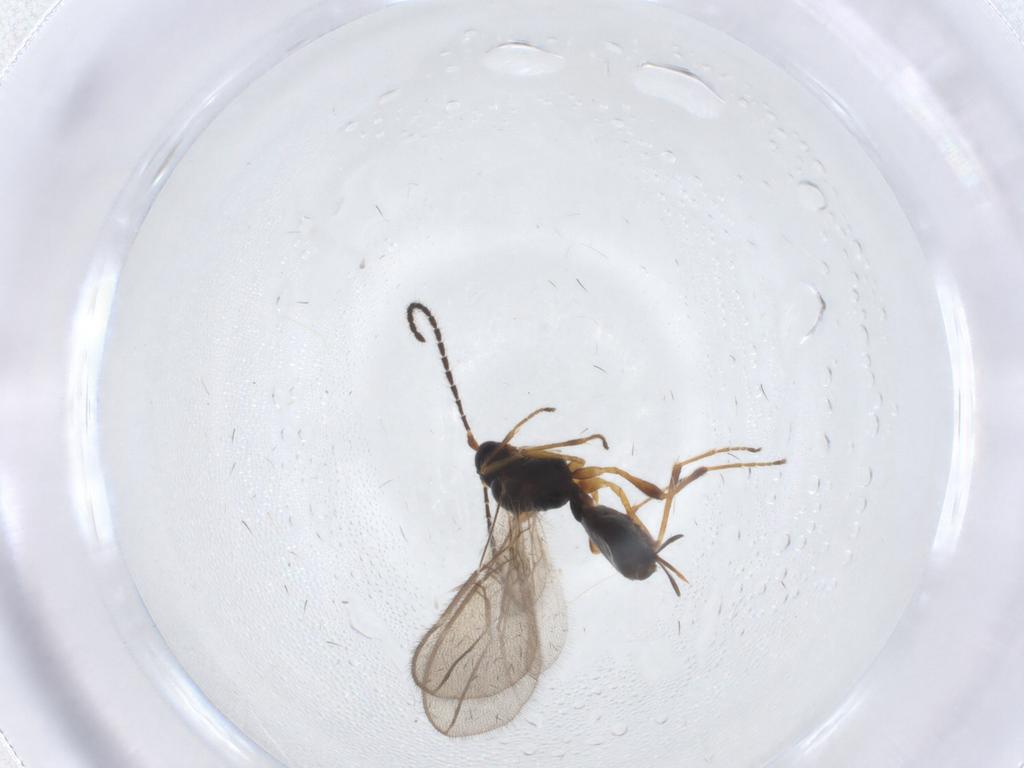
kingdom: Animalia
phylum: Arthropoda
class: Insecta
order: Hymenoptera
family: Braconidae
